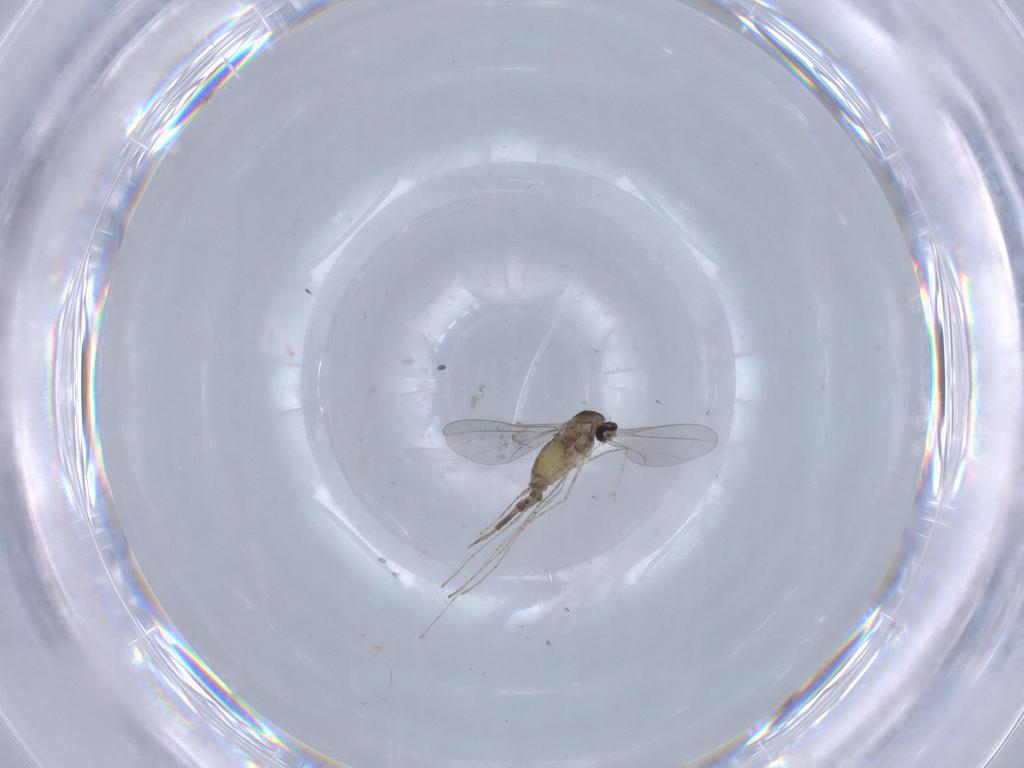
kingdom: Animalia
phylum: Arthropoda
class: Insecta
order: Diptera
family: Cecidomyiidae
